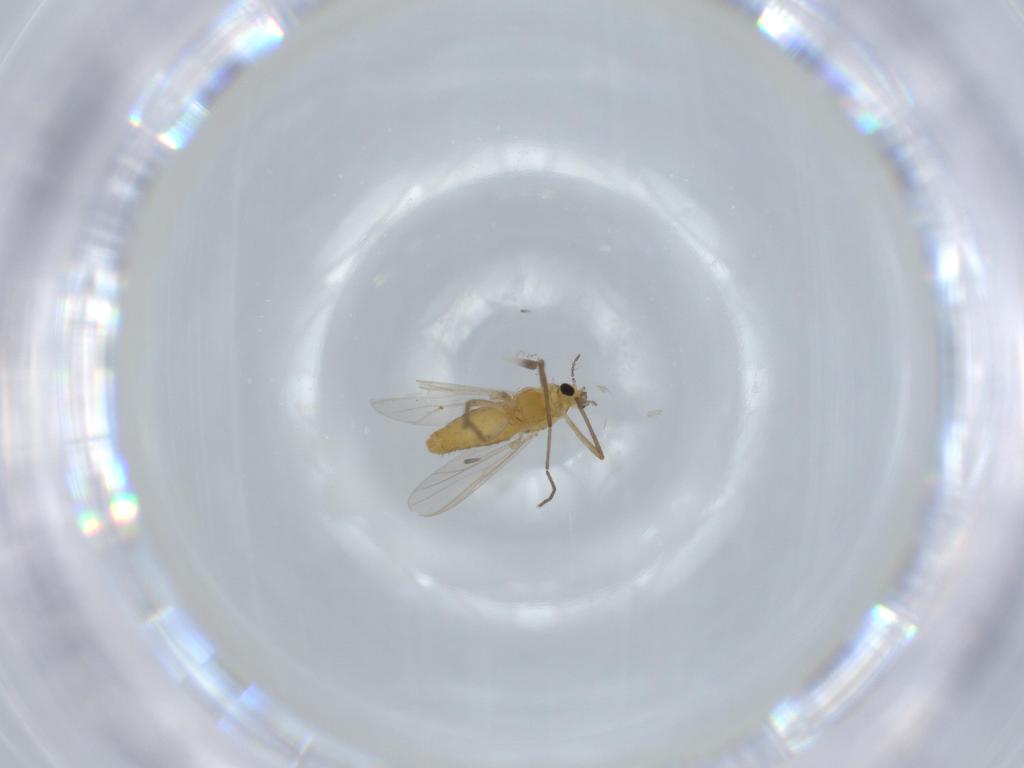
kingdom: Animalia
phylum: Arthropoda
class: Insecta
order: Diptera
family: Chironomidae
